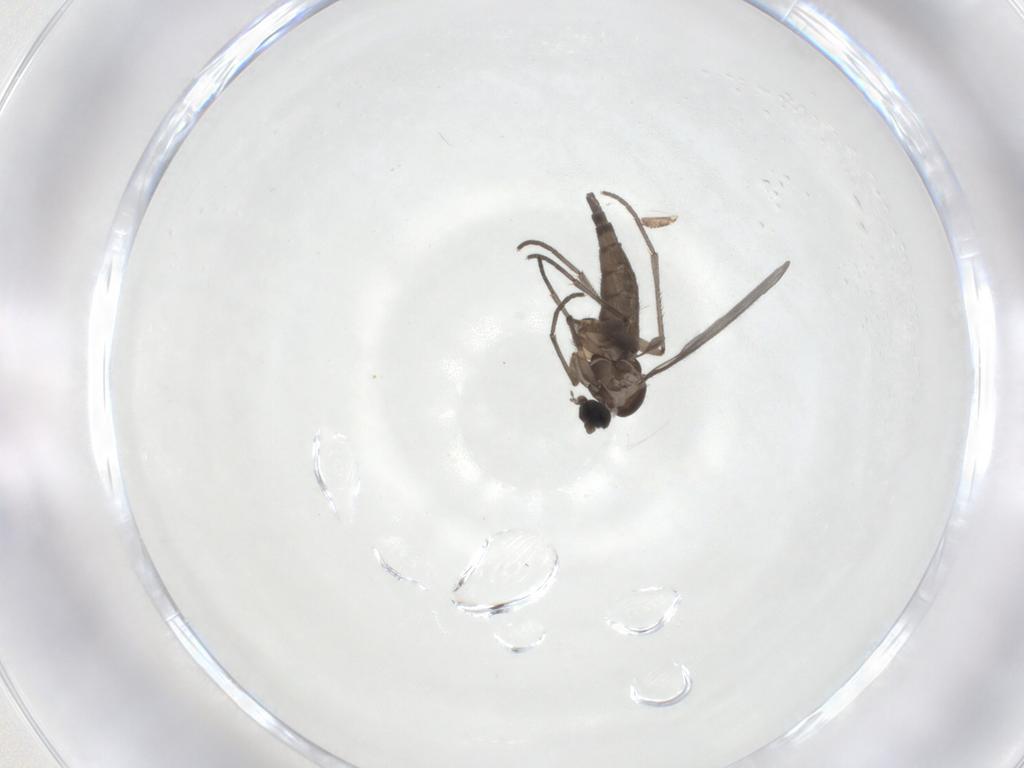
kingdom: Animalia
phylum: Arthropoda
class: Insecta
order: Diptera
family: Sciaridae
